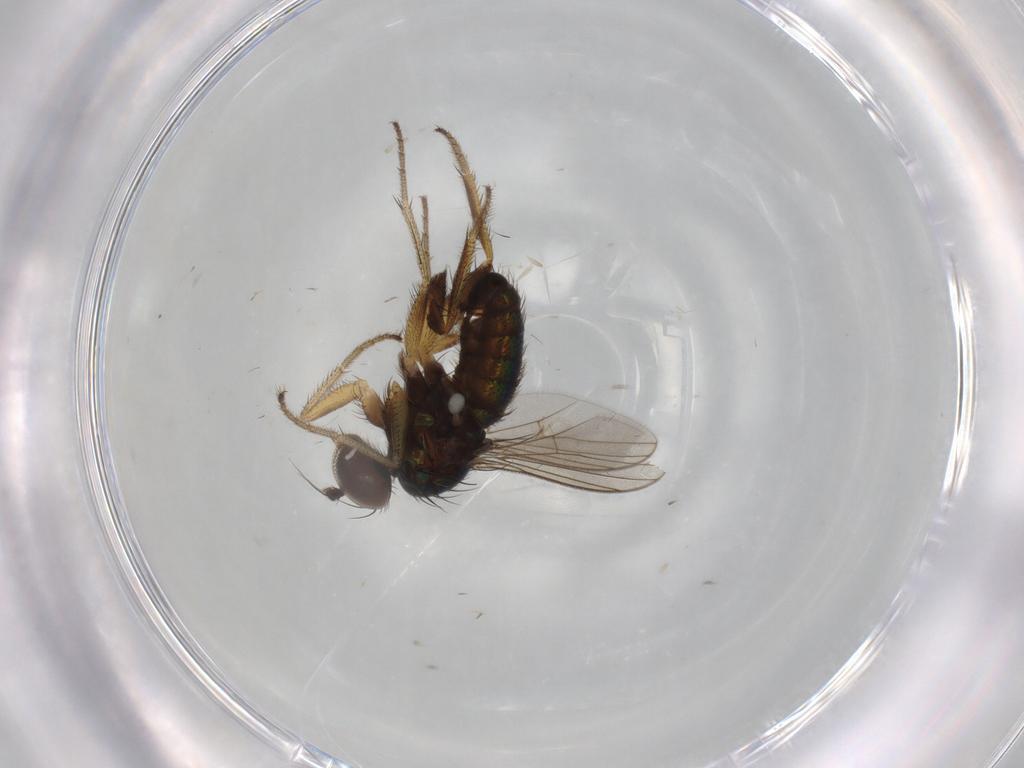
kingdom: Animalia
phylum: Arthropoda
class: Insecta
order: Diptera
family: Dolichopodidae
